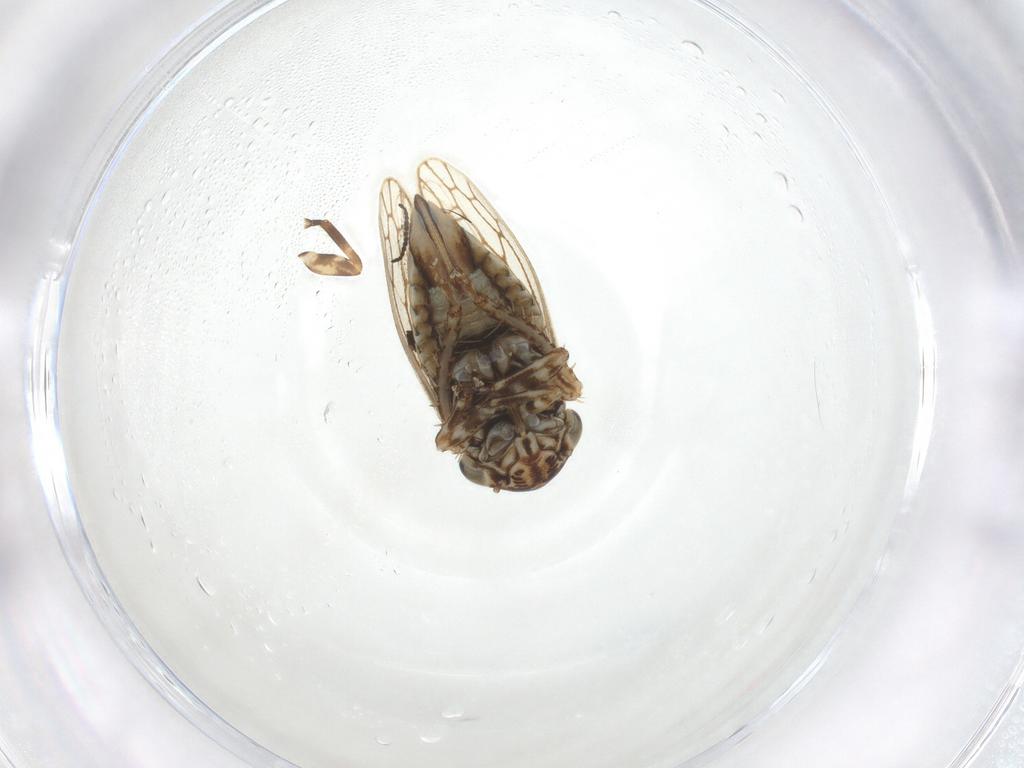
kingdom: Animalia
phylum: Arthropoda
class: Insecta
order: Hemiptera
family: Cicadellidae
